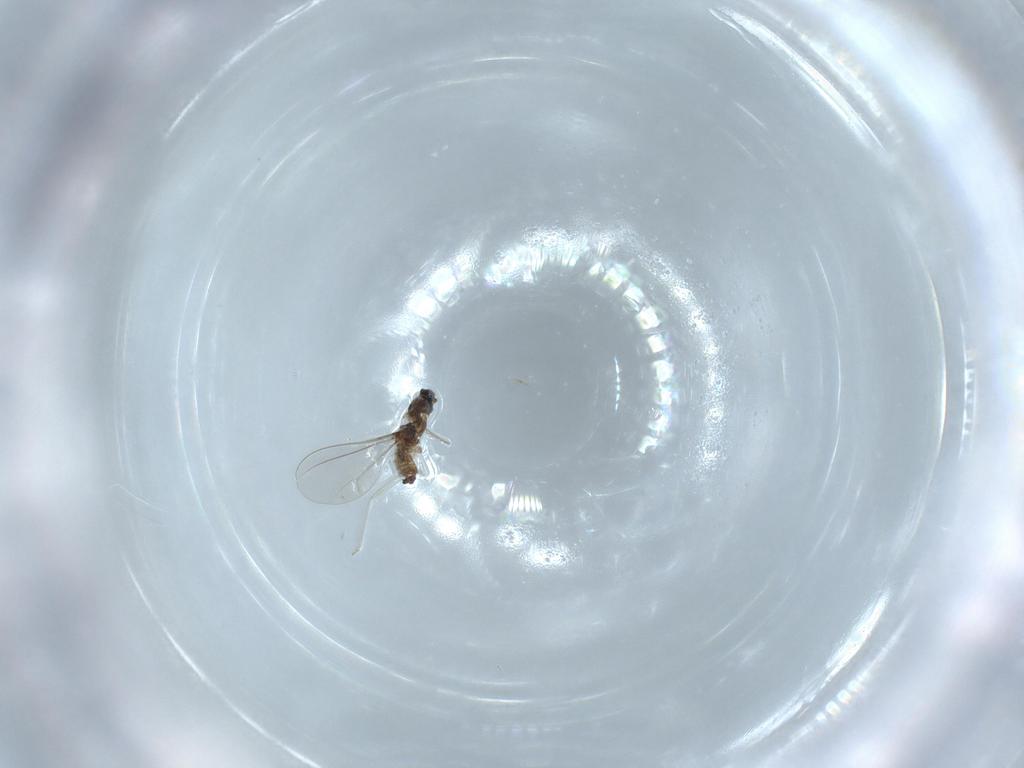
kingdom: Animalia
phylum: Arthropoda
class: Insecta
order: Diptera
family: Cecidomyiidae
